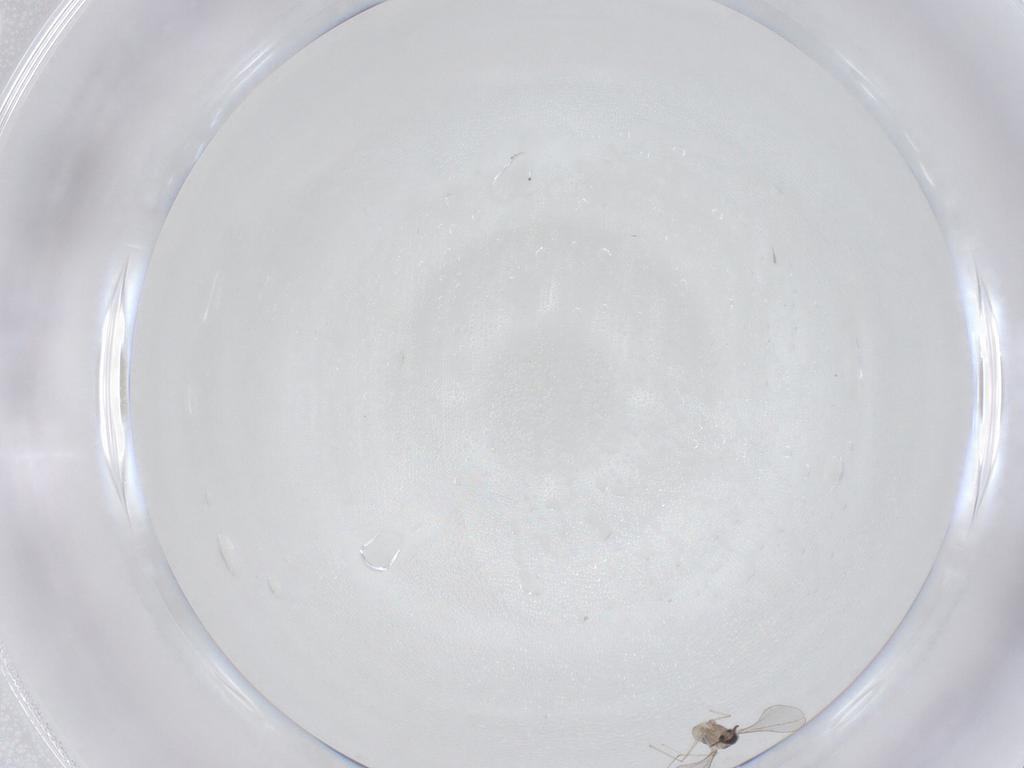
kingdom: Animalia
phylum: Arthropoda
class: Insecta
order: Diptera
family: Cecidomyiidae
